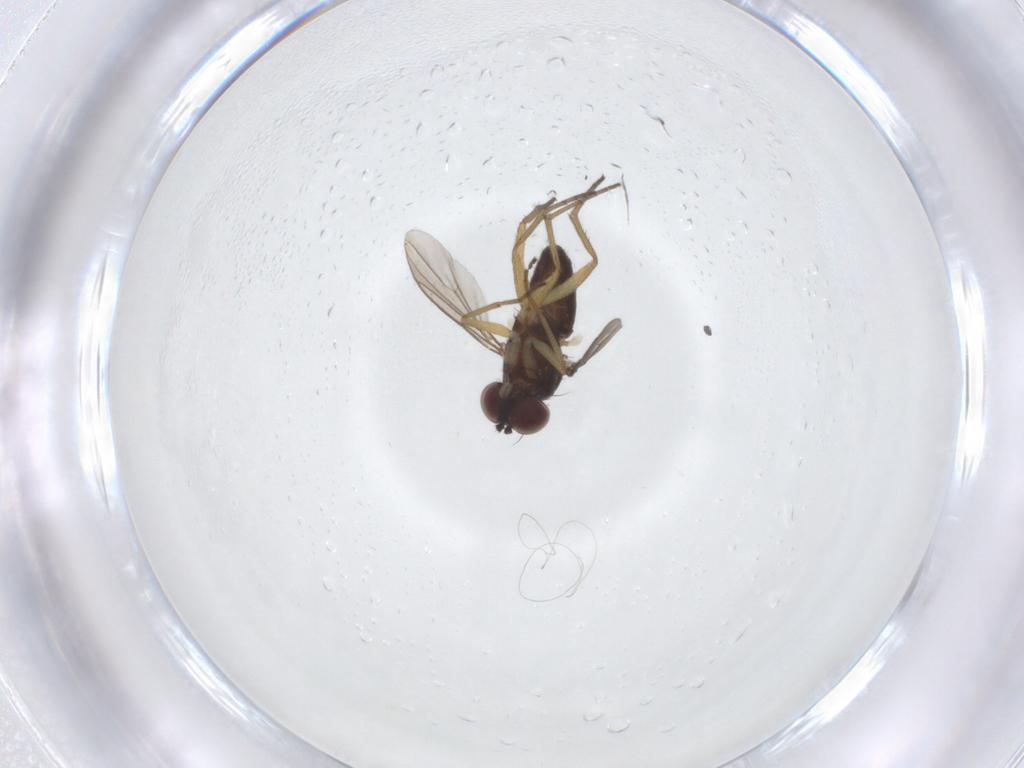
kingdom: Animalia
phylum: Arthropoda
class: Insecta
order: Diptera
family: Dolichopodidae
